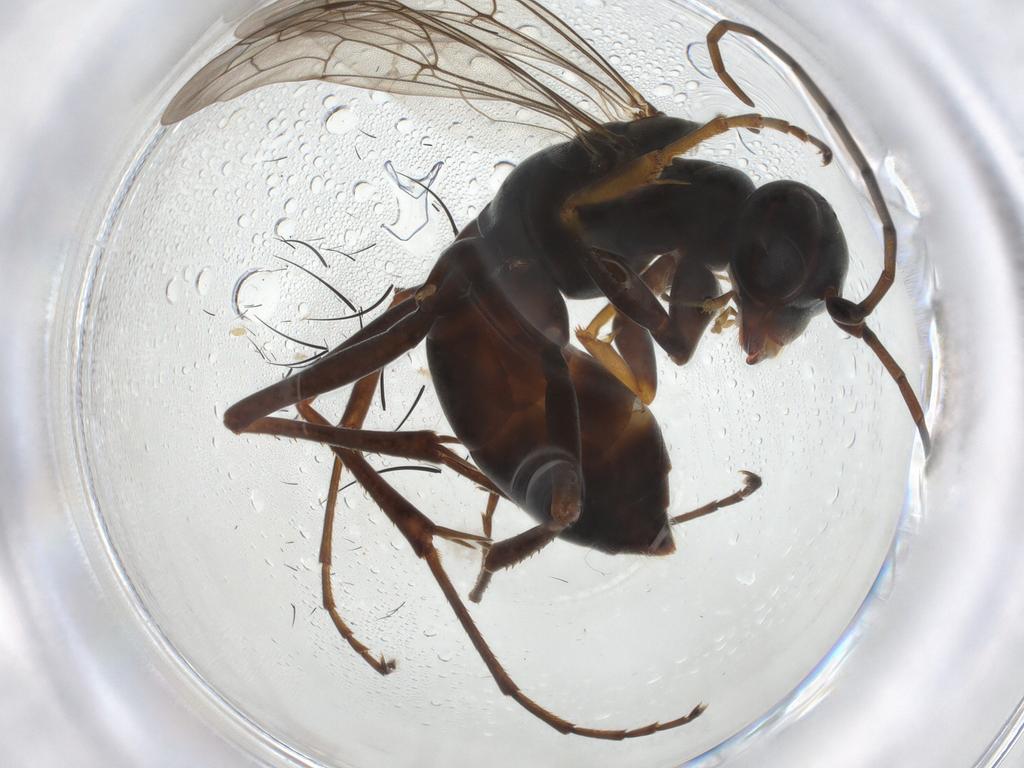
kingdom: Animalia
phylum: Arthropoda
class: Insecta
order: Hymenoptera
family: Pompilidae
